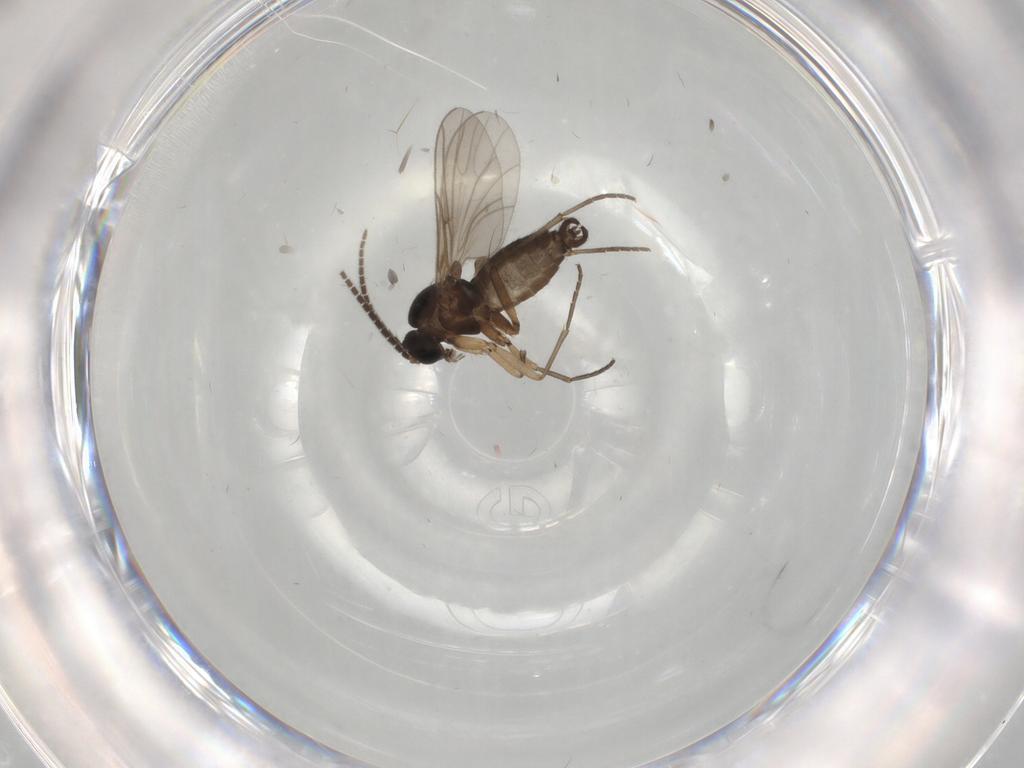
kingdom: Animalia
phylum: Arthropoda
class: Insecta
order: Diptera
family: Sciaridae
